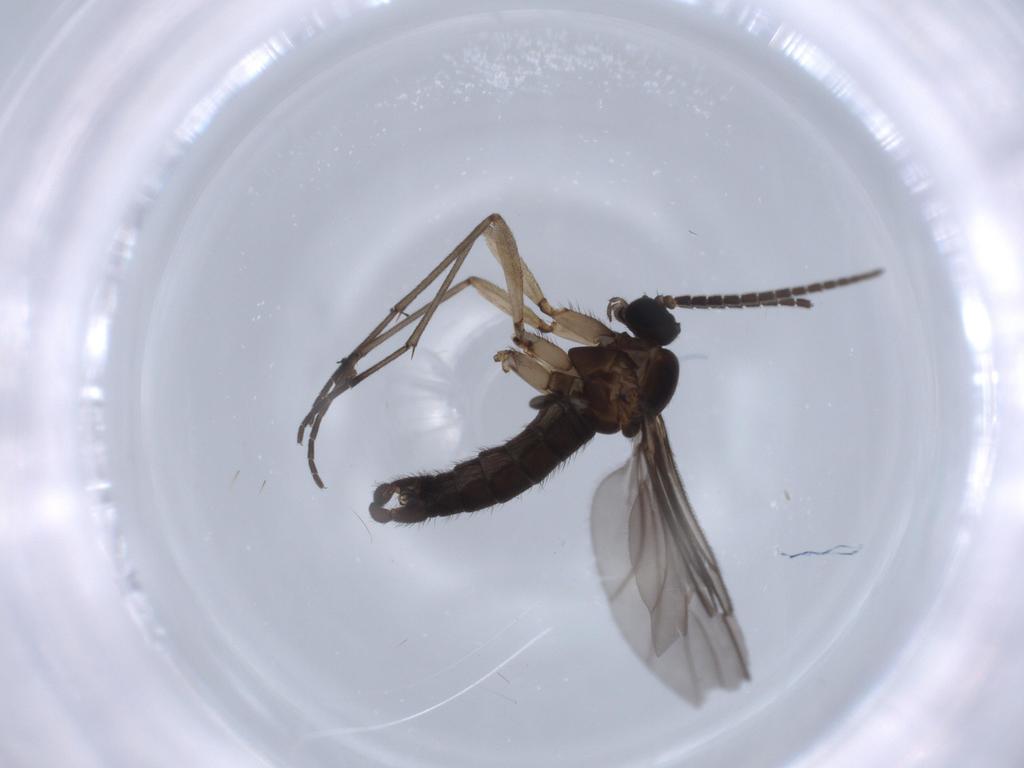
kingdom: Animalia
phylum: Arthropoda
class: Insecta
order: Diptera
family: Sciaridae
